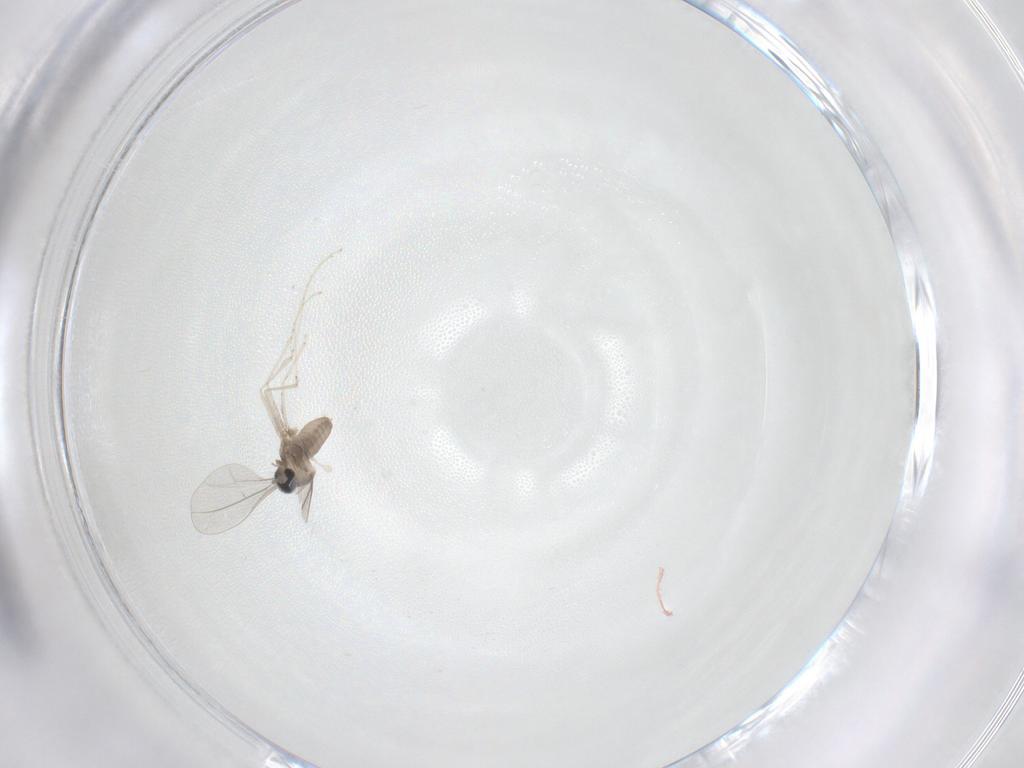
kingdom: Animalia
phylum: Arthropoda
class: Insecta
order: Diptera
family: Cecidomyiidae
